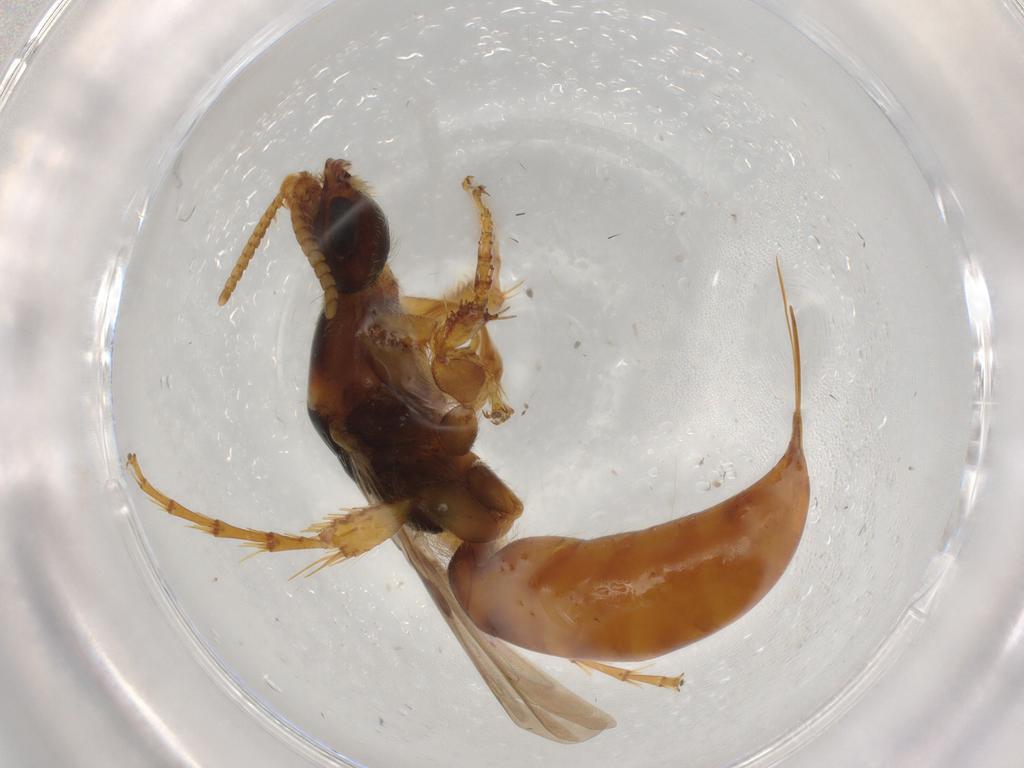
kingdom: Animalia
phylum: Arthropoda
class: Insecta
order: Hymenoptera
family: Thynnidae
